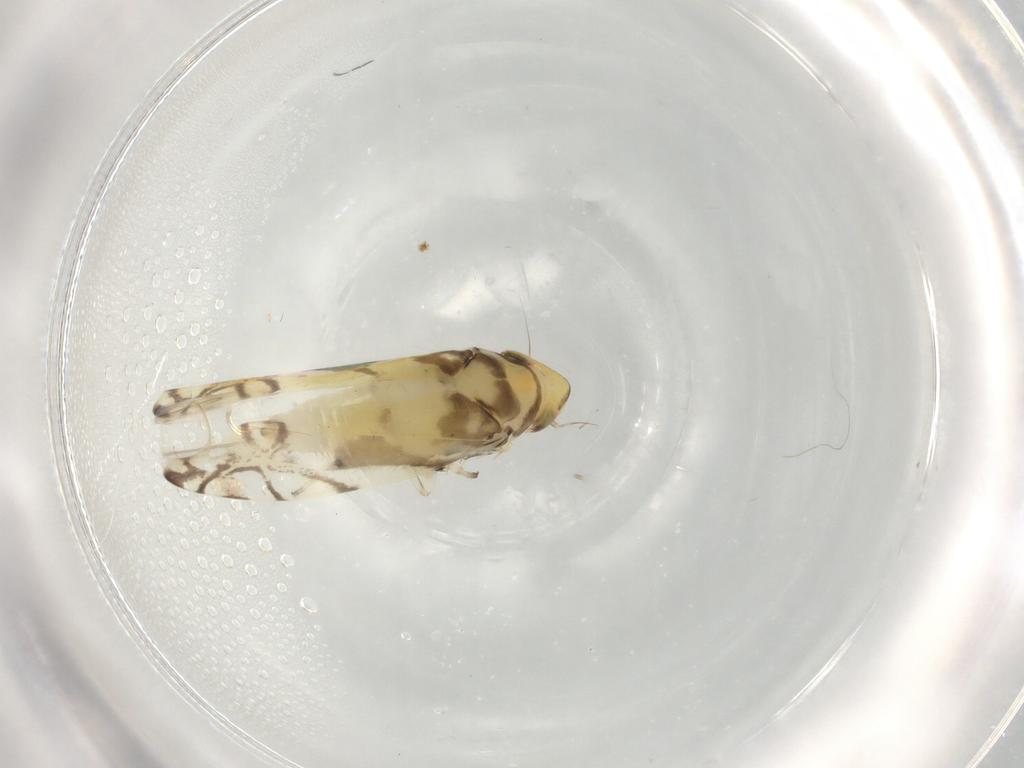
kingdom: Animalia
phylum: Arthropoda
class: Insecta
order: Hemiptera
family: Cicadellidae
